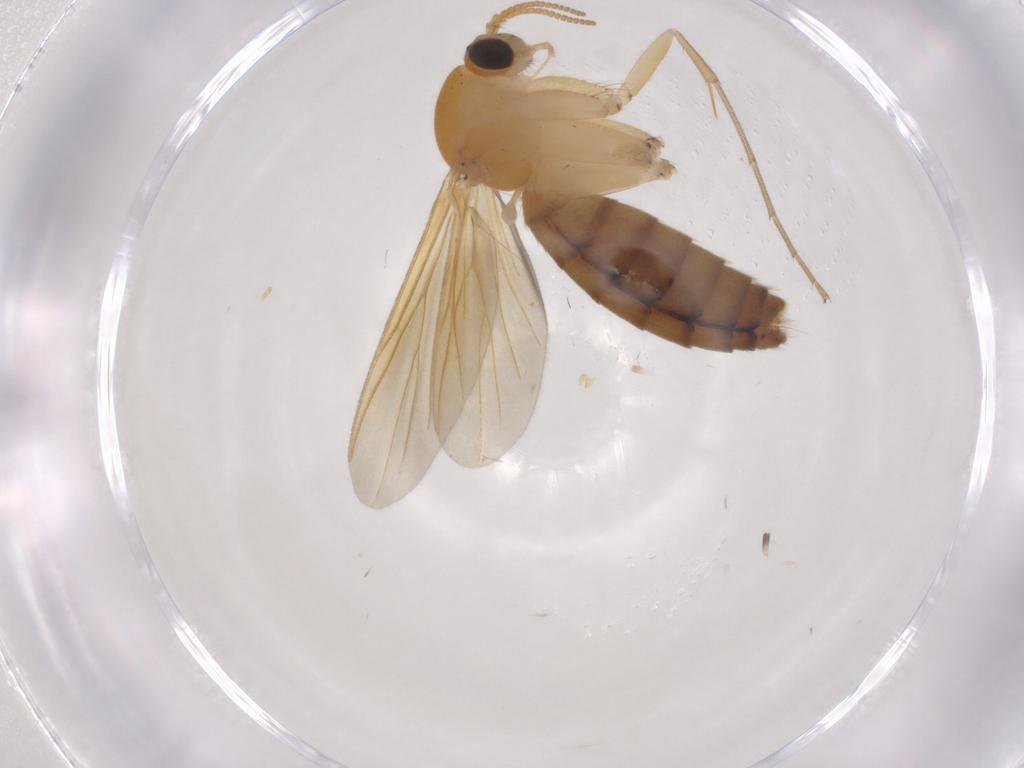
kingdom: Animalia
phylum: Arthropoda
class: Insecta
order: Diptera
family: Mycetophilidae
